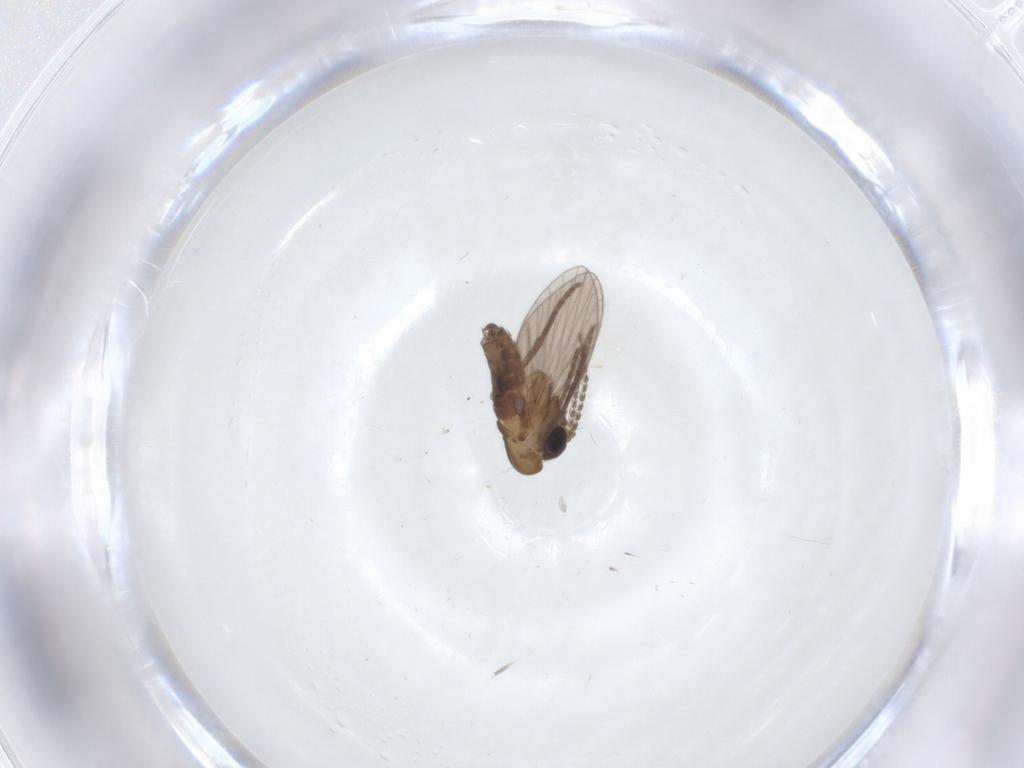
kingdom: Animalia
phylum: Arthropoda
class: Insecta
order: Diptera
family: Cecidomyiidae
